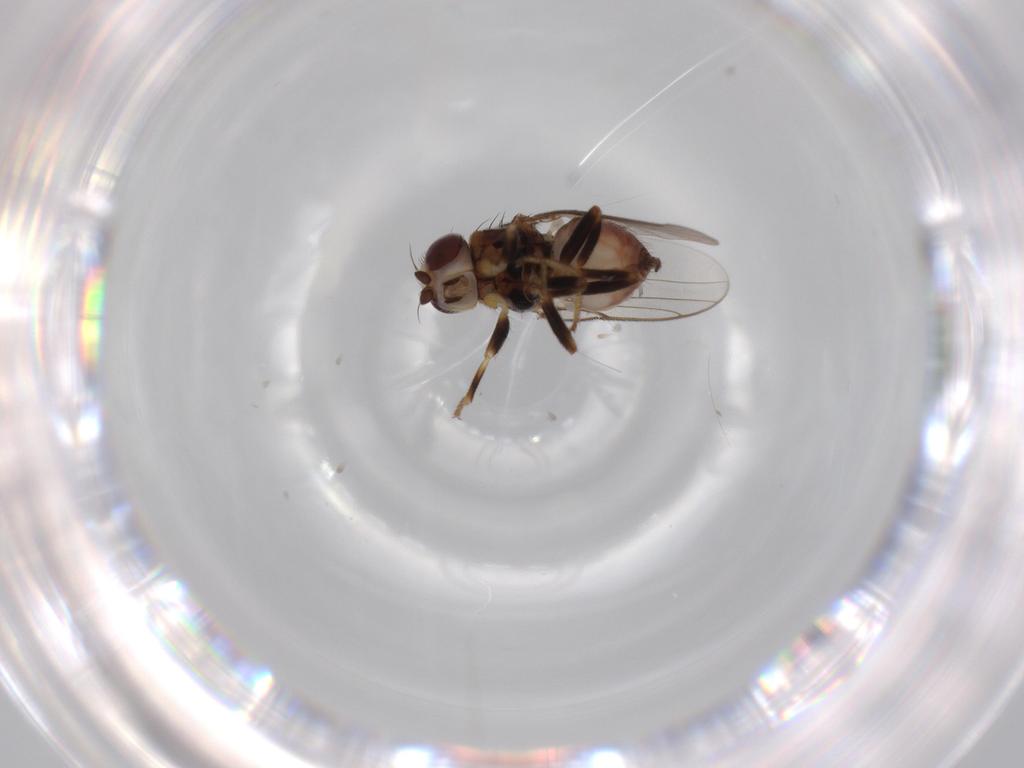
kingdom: Animalia
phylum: Arthropoda
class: Insecta
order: Diptera
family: Chloropidae
